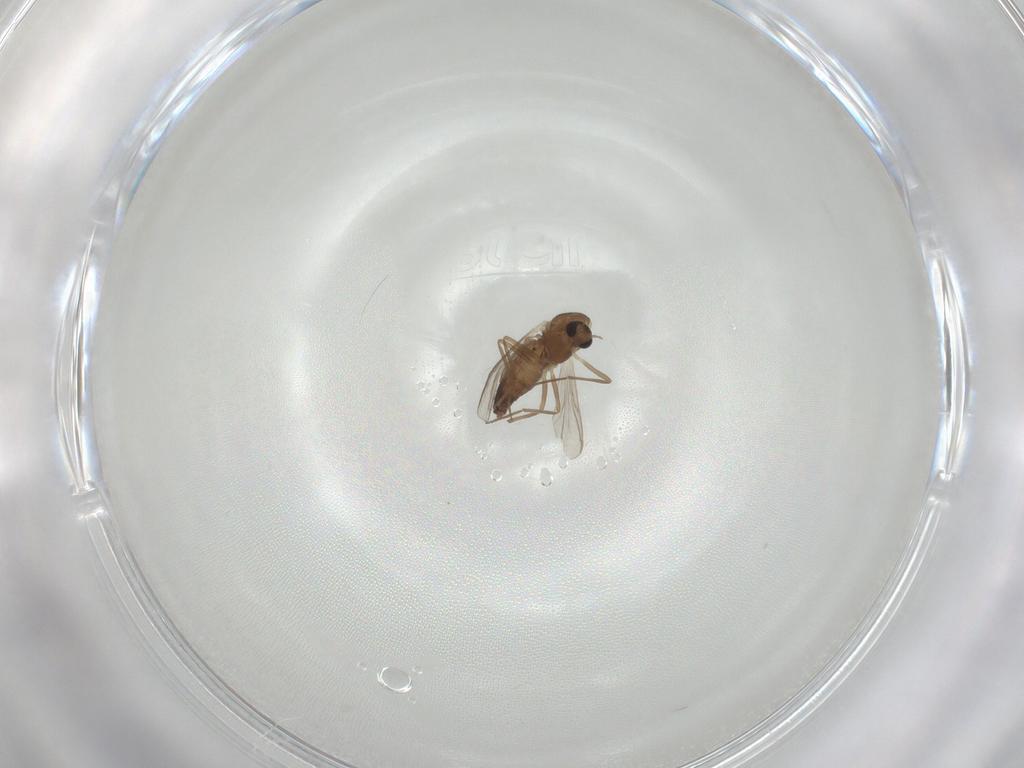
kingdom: Animalia
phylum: Arthropoda
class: Insecta
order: Diptera
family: Chironomidae
